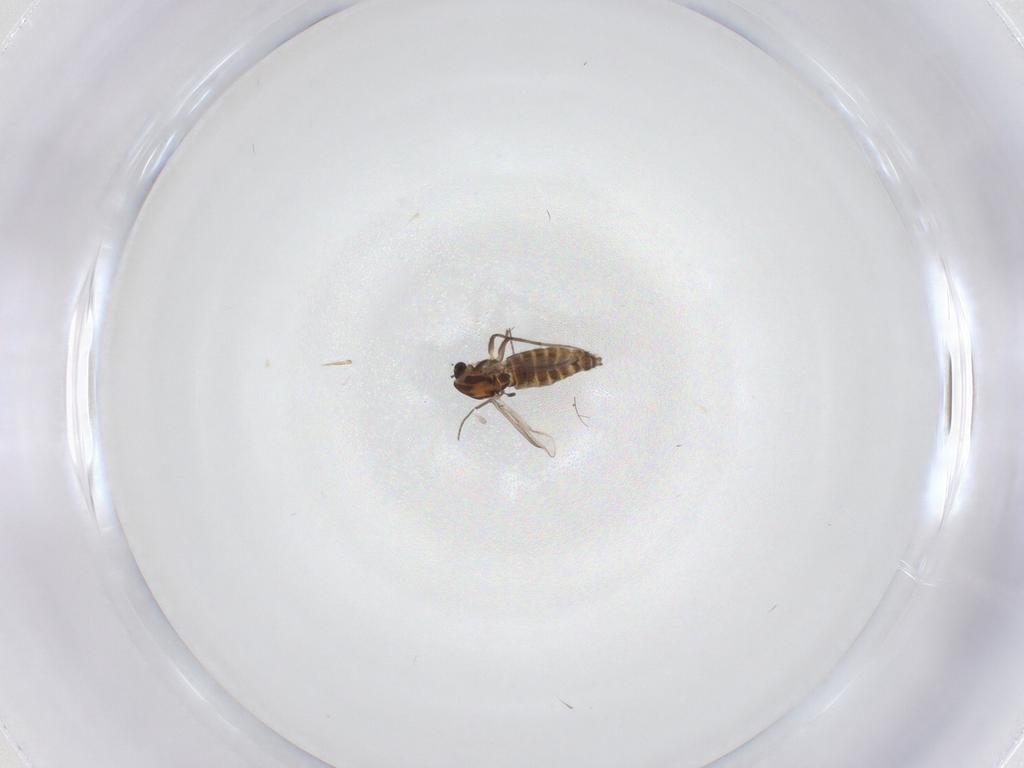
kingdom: Animalia
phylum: Arthropoda
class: Insecta
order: Diptera
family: Chironomidae
